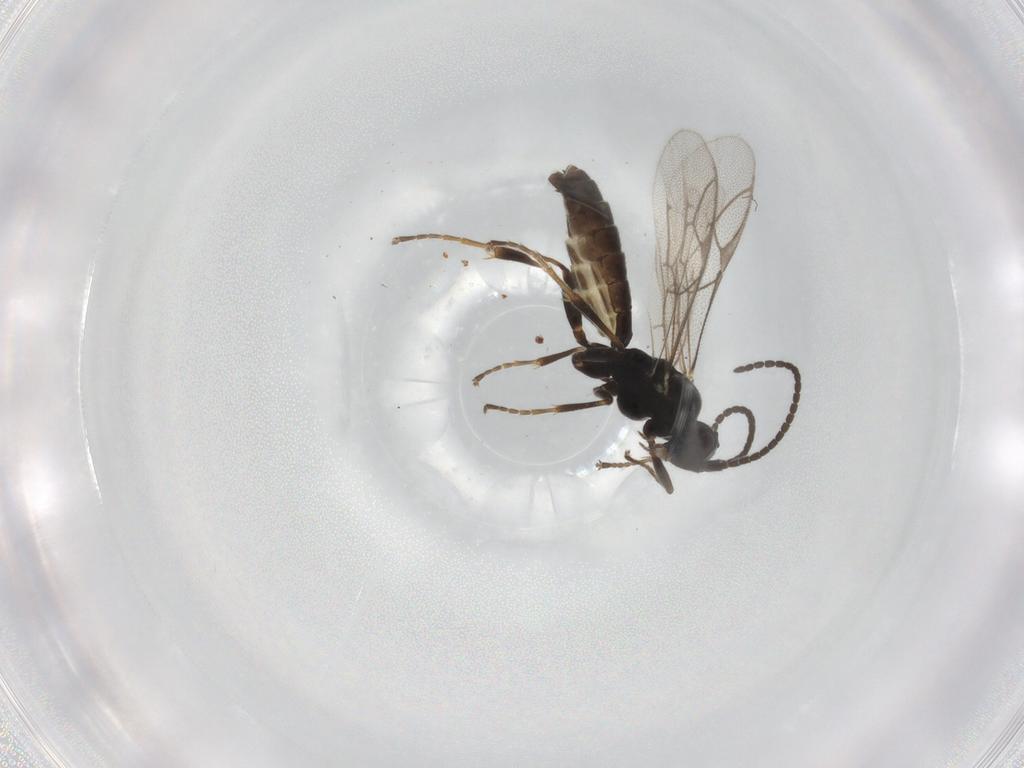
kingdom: Animalia
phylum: Arthropoda
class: Insecta
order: Hymenoptera
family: Ichneumonidae
